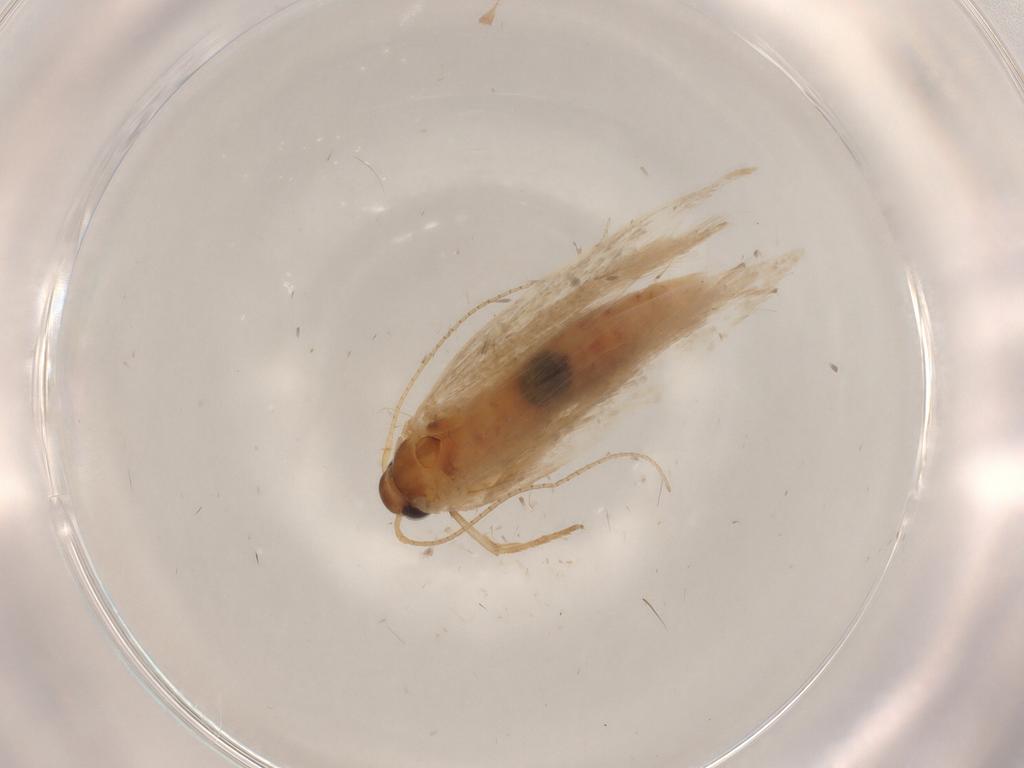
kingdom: Animalia
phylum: Arthropoda
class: Insecta
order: Lepidoptera
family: Gelechiidae
